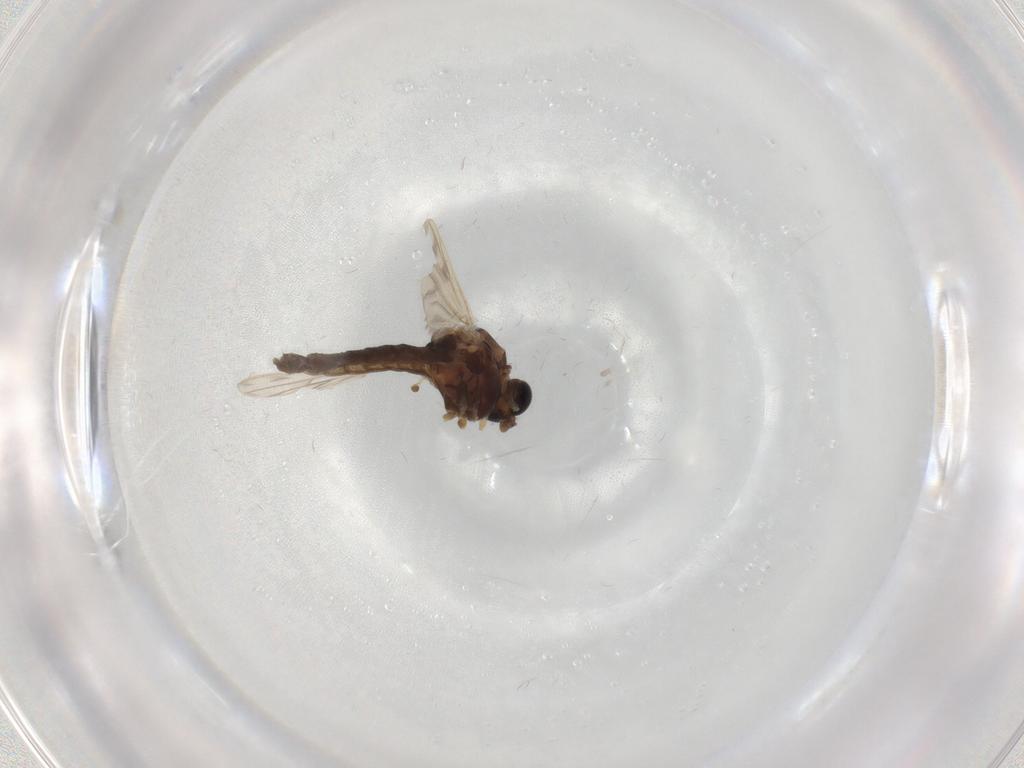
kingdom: Animalia
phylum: Arthropoda
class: Insecta
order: Diptera
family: Chironomidae
